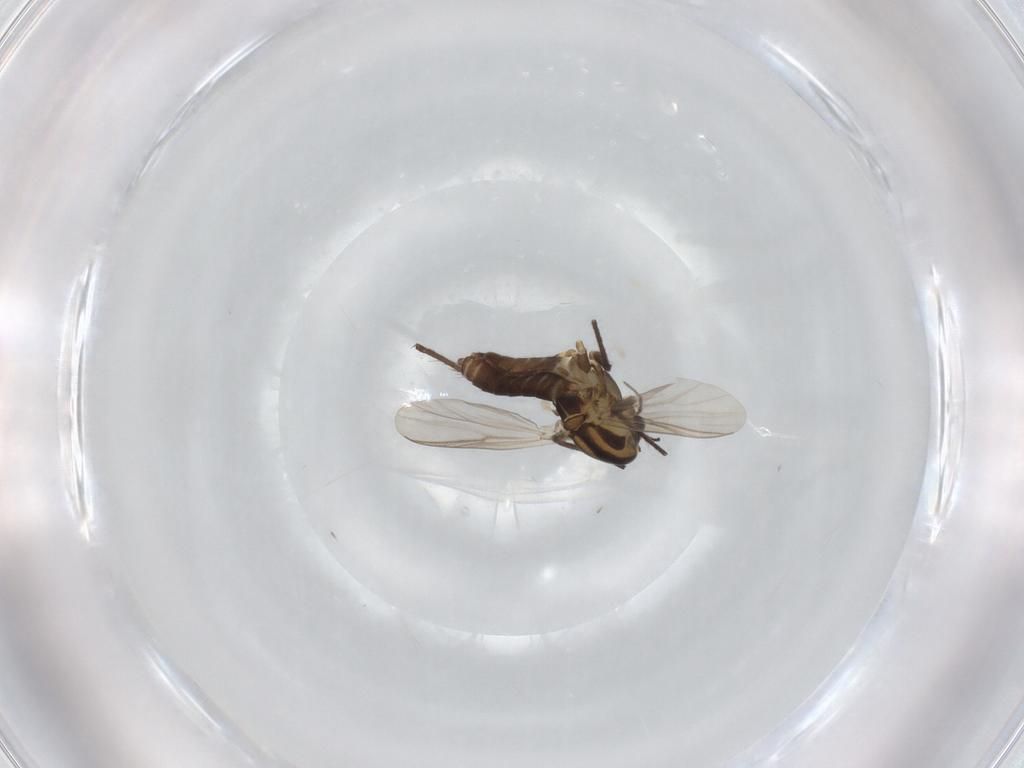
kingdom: Animalia
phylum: Arthropoda
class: Insecta
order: Diptera
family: Chironomidae
